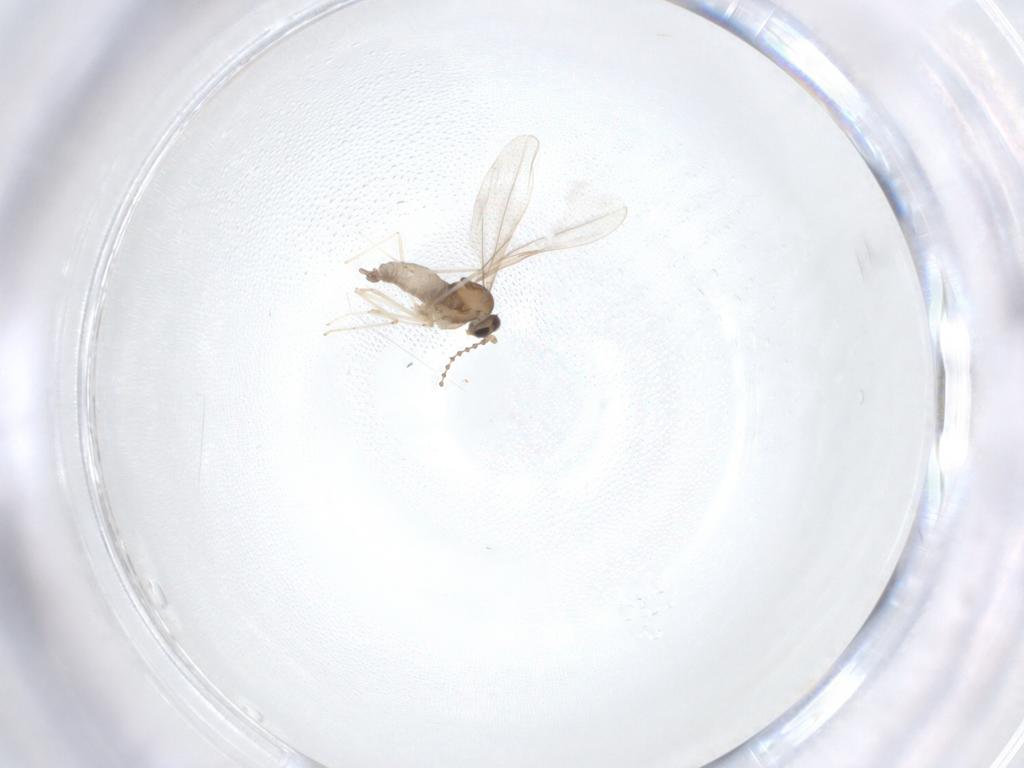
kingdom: Animalia
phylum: Arthropoda
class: Insecta
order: Diptera
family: Cecidomyiidae
